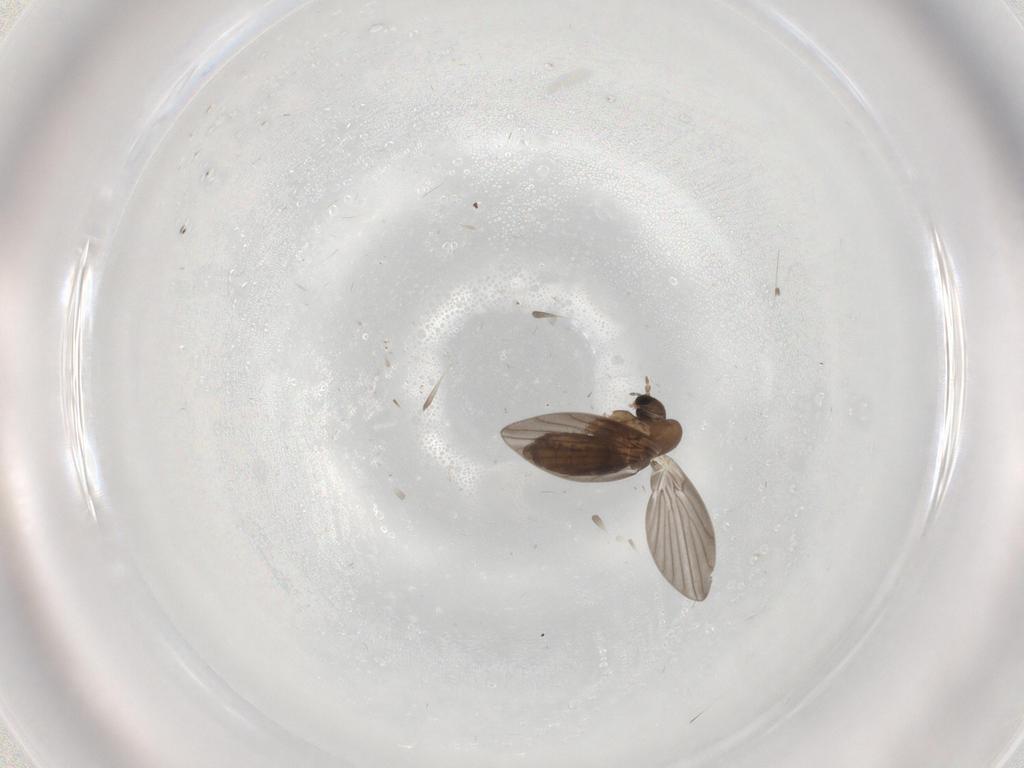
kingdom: Animalia
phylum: Arthropoda
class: Insecta
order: Diptera
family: Psychodidae
